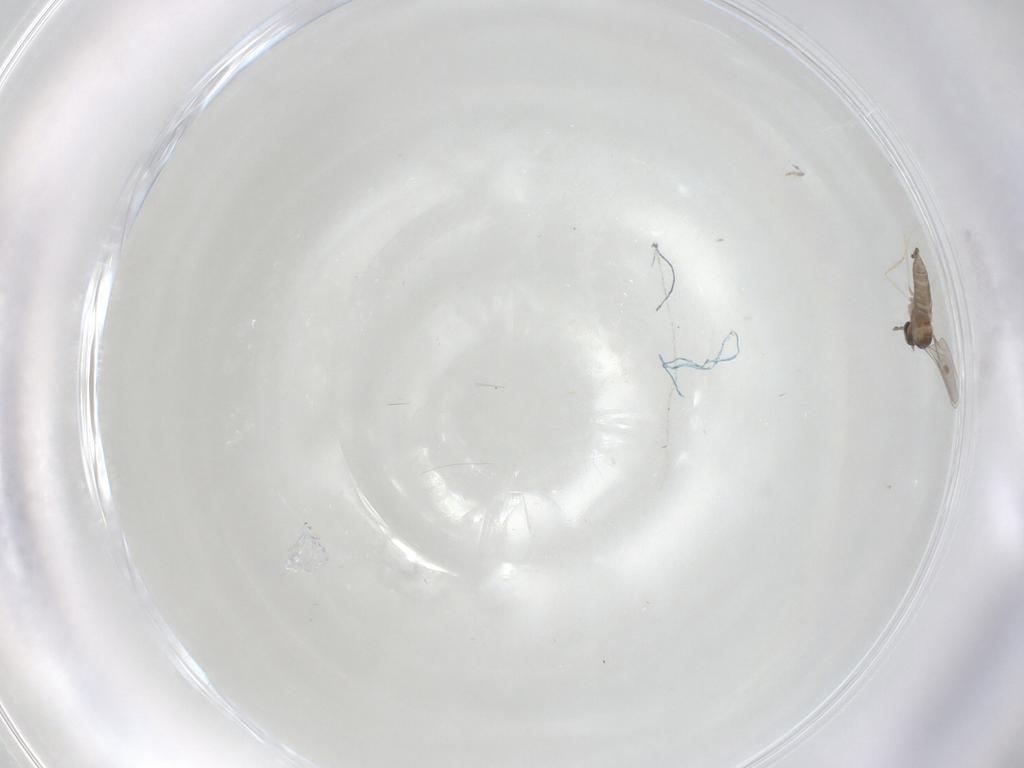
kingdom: Animalia
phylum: Arthropoda
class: Insecta
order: Diptera
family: Cecidomyiidae
